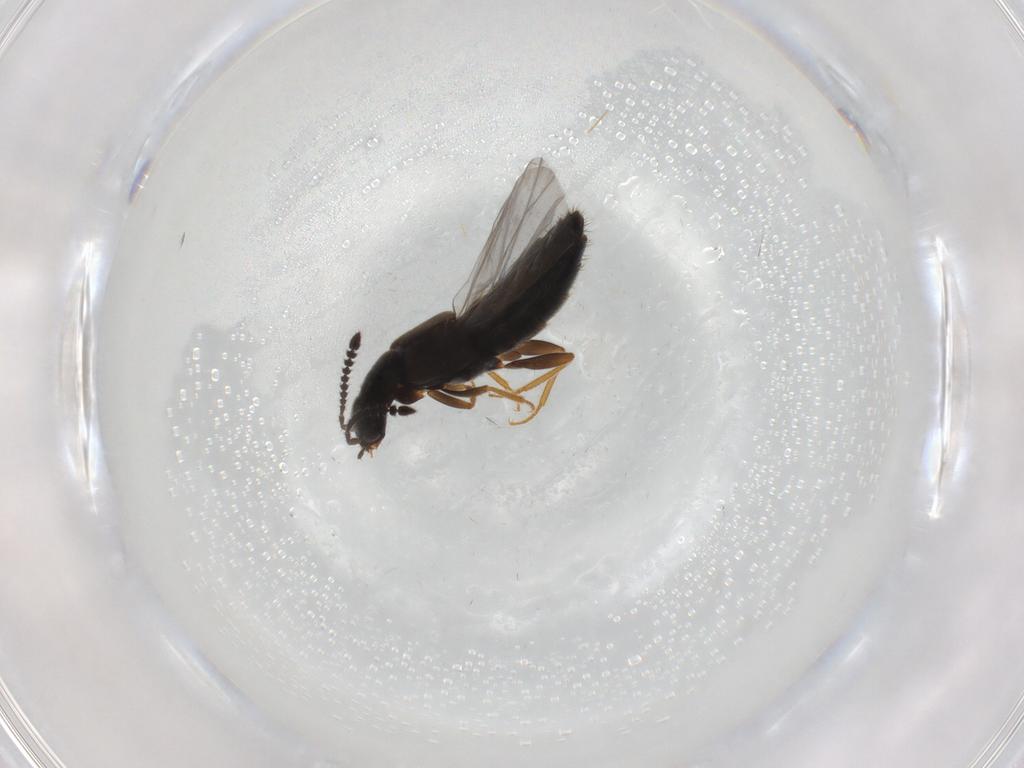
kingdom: Animalia
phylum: Arthropoda
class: Insecta
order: Coleoptera
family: Staphylinidae
